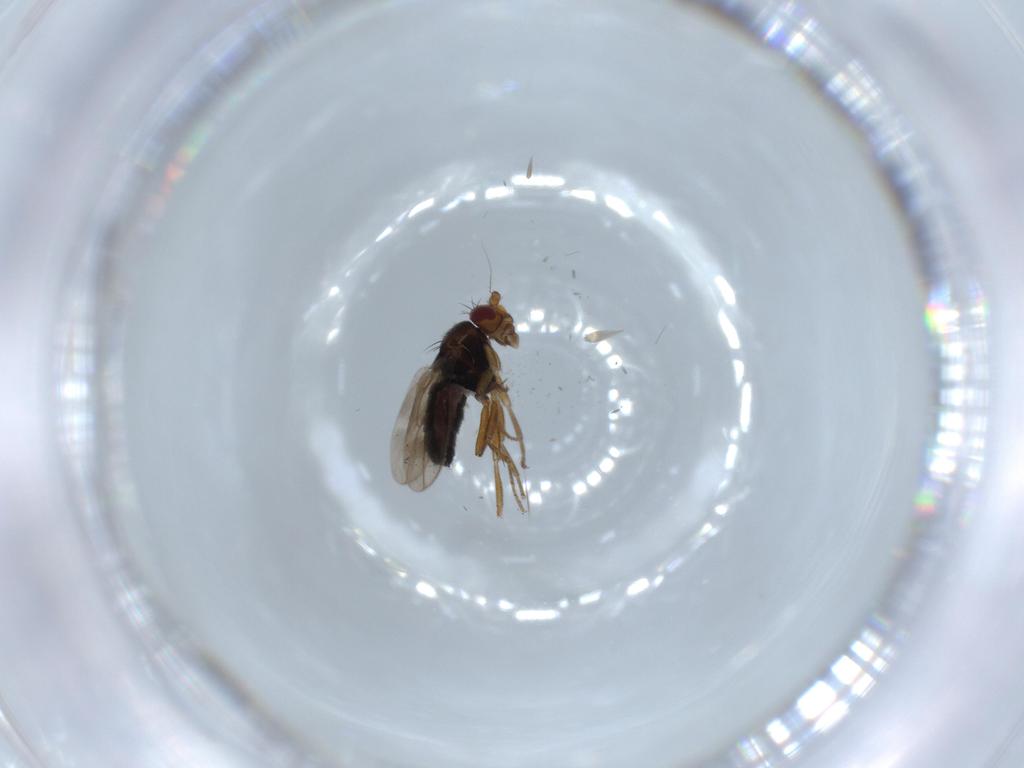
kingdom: Animalia
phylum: Arthropoda
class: Insecta
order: Diptera
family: Sphaeroceridae
